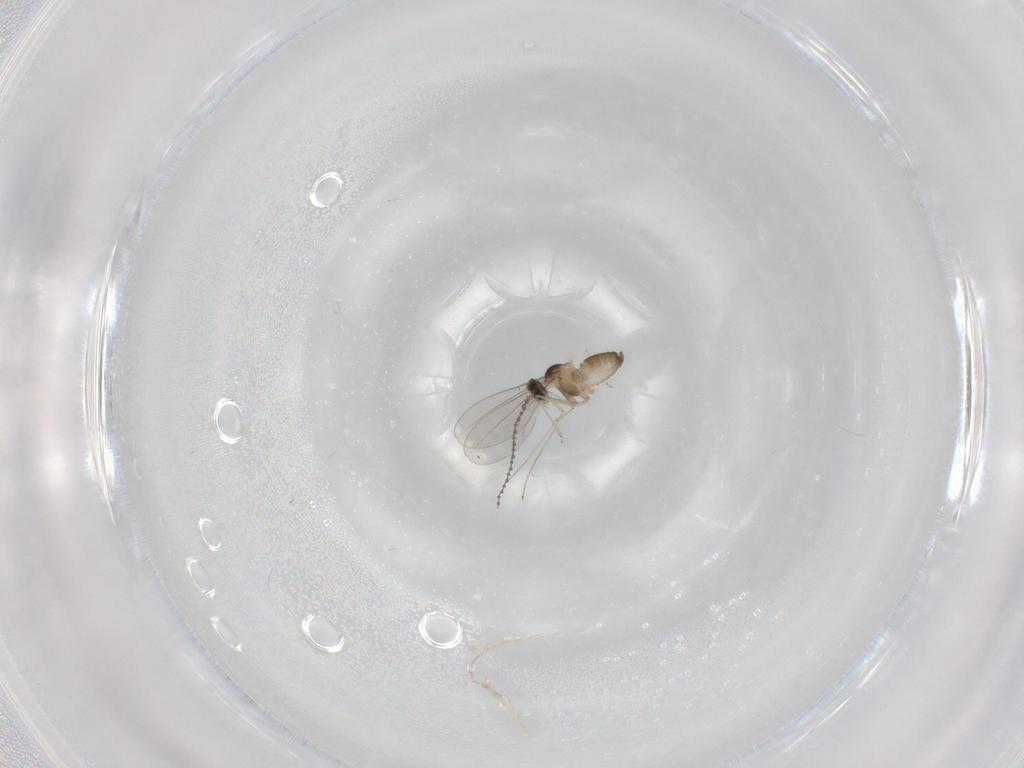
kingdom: Animalia
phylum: Arthropoda
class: Insecta
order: Diptera
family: Cecidomyiidae
